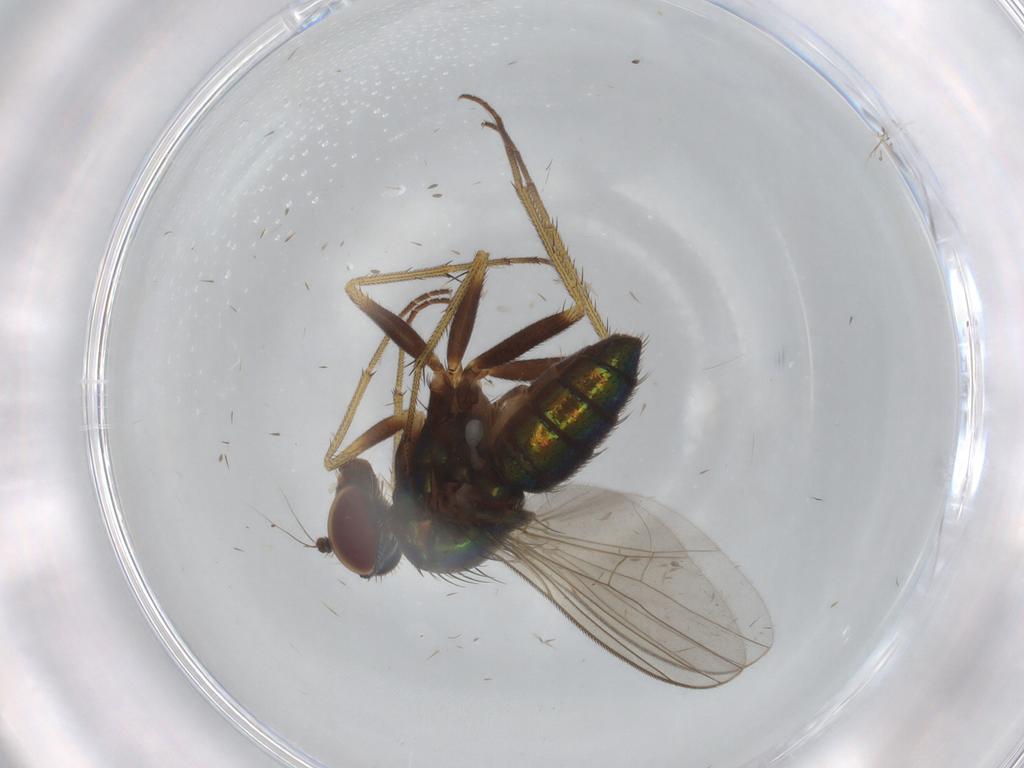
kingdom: Animalia
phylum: Arthropoda
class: Insecta
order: Diptera
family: Dolichopodidae
